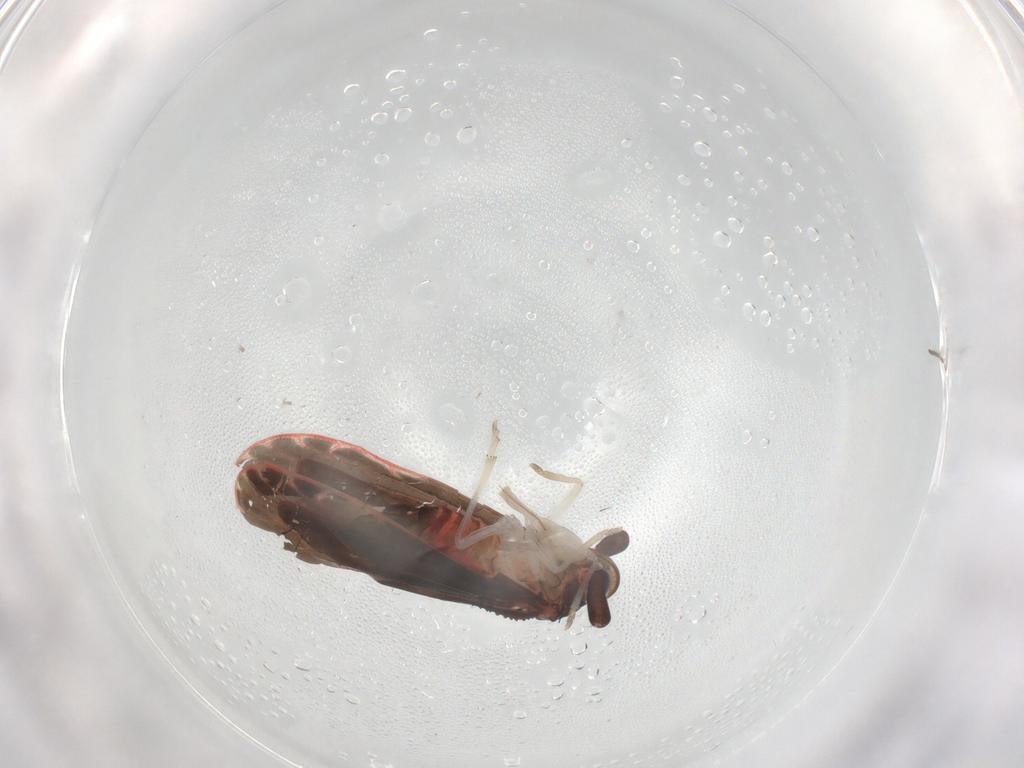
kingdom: Animalia
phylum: Arthropoda
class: Insecta
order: Hemiptera
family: Derbidae
